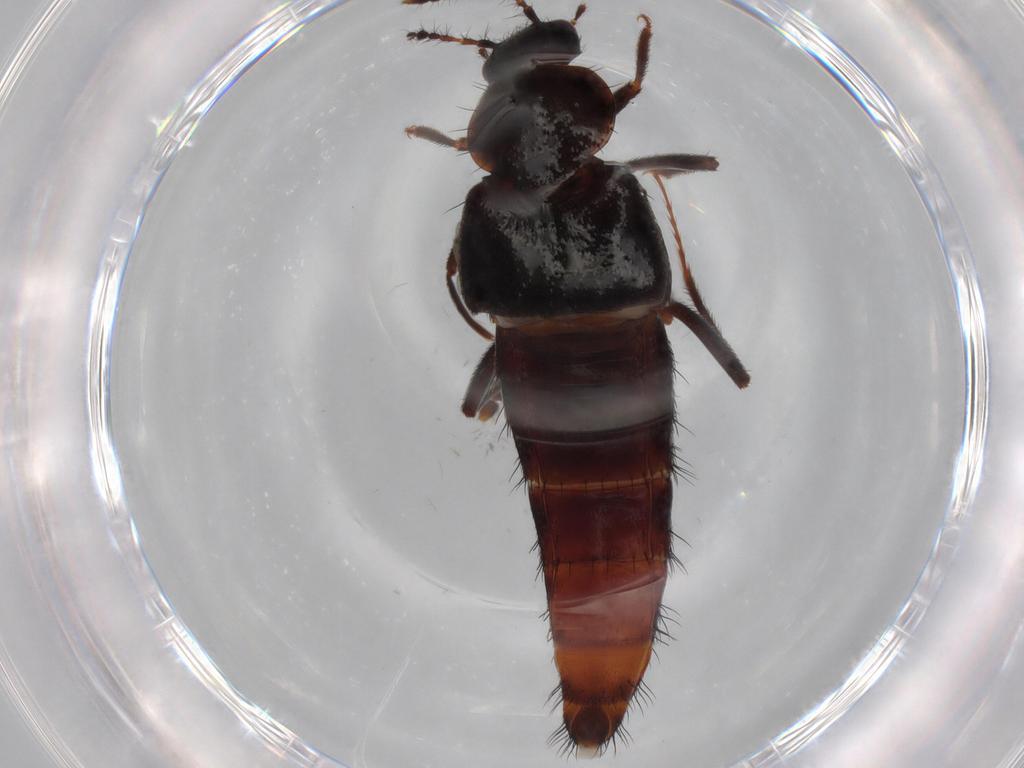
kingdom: Animalia
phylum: Arthropoda
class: Insecta
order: Coleoptera
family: Staphylinidae
